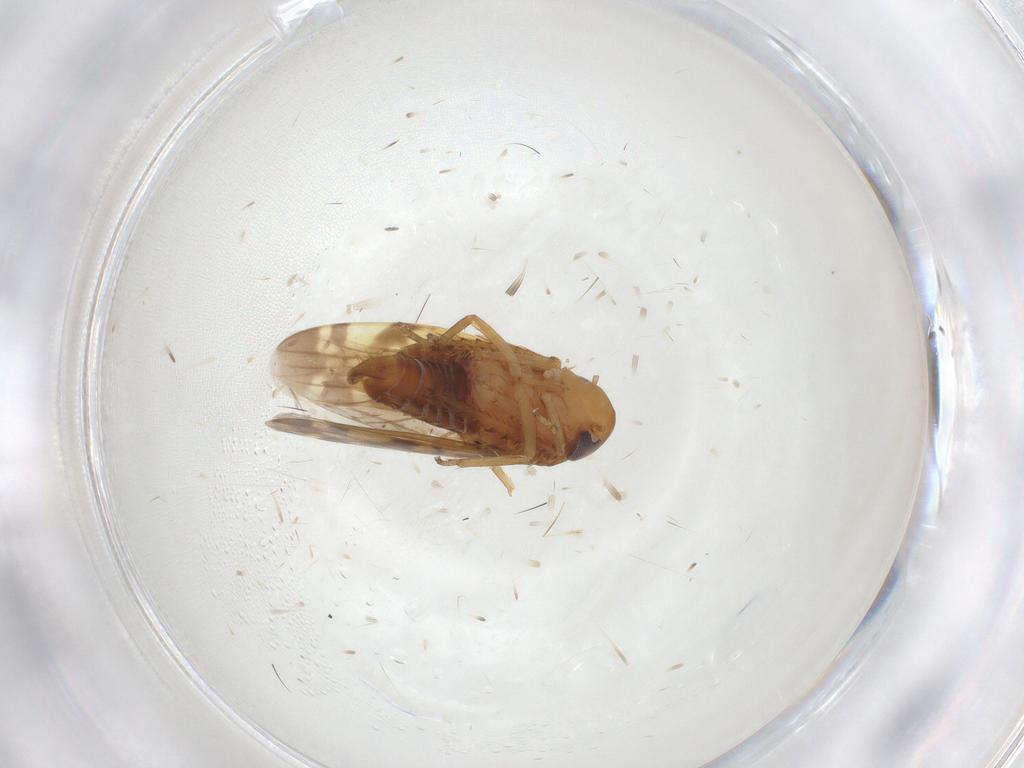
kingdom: Animalia
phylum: Arthropoda
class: Insecta
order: Hemiptera
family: Cicadellidae
